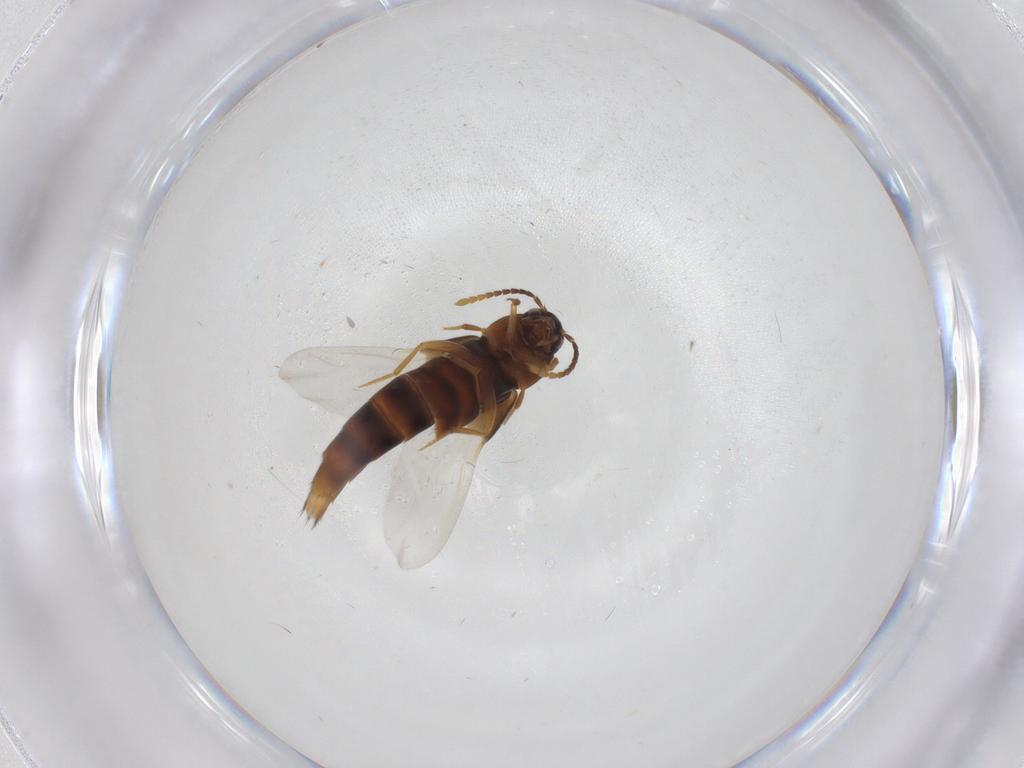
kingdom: Animalia
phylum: Arthropoda
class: Insecta
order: Coleoptera
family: Staphylinidae
